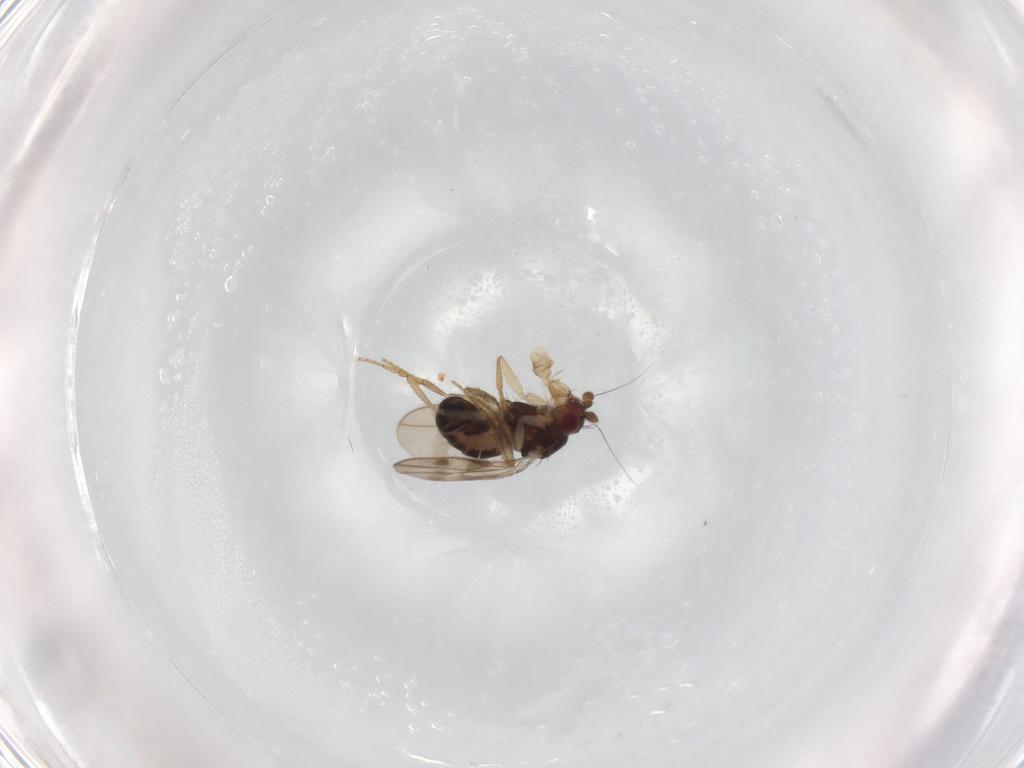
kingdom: Animalia
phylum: Arthropoda
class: Insecta
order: Diptera
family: Sphaeroceridae
